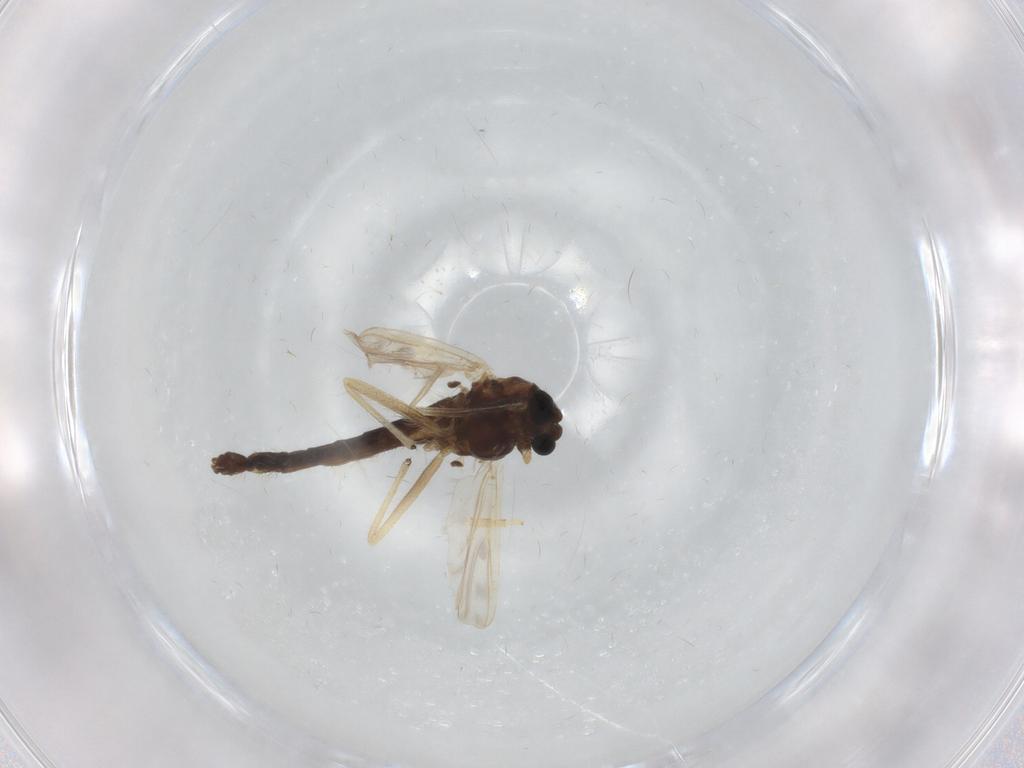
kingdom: Animalia
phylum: Arthropoda
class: Insecta
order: Diptera
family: Chironomidae
